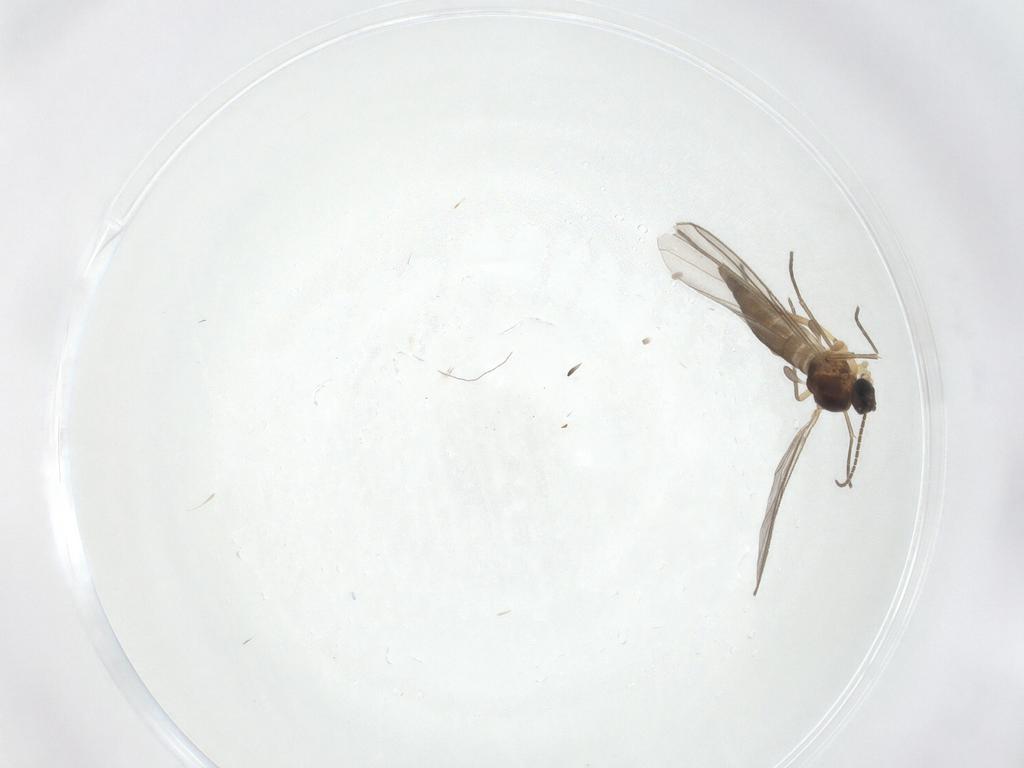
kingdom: Animalia
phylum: Arthropoda
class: Insecta
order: Diptera
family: Sciaridae
